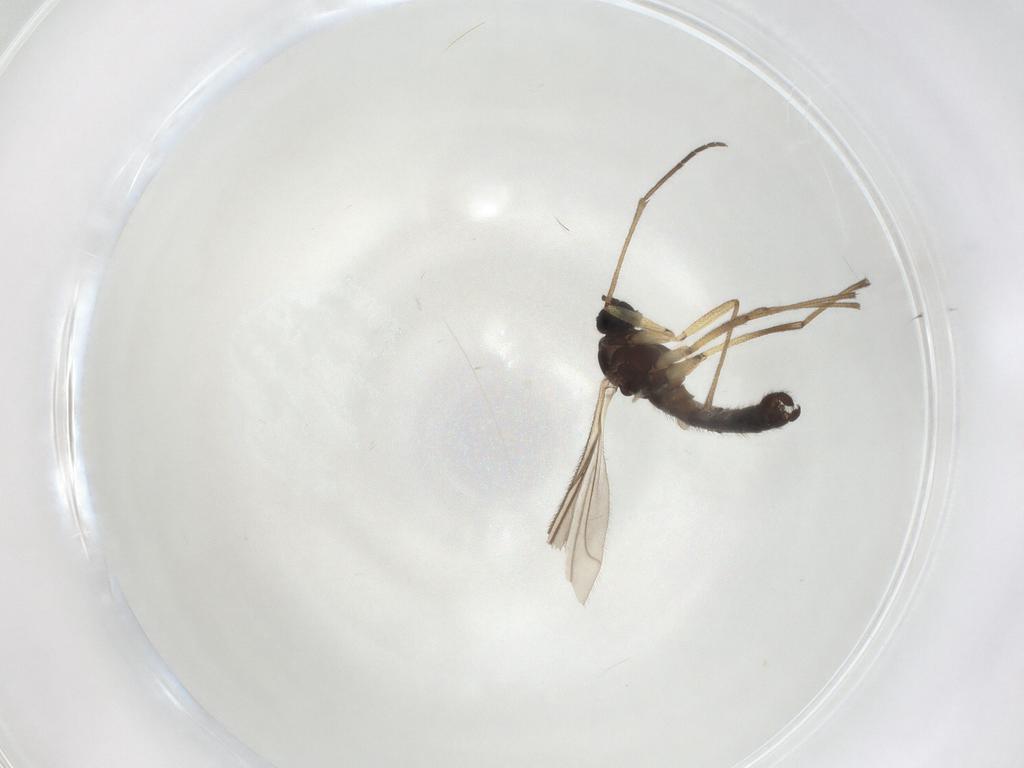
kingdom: Animalia
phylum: Arthropoda
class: Insecta
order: Diptera
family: Sciaridae
